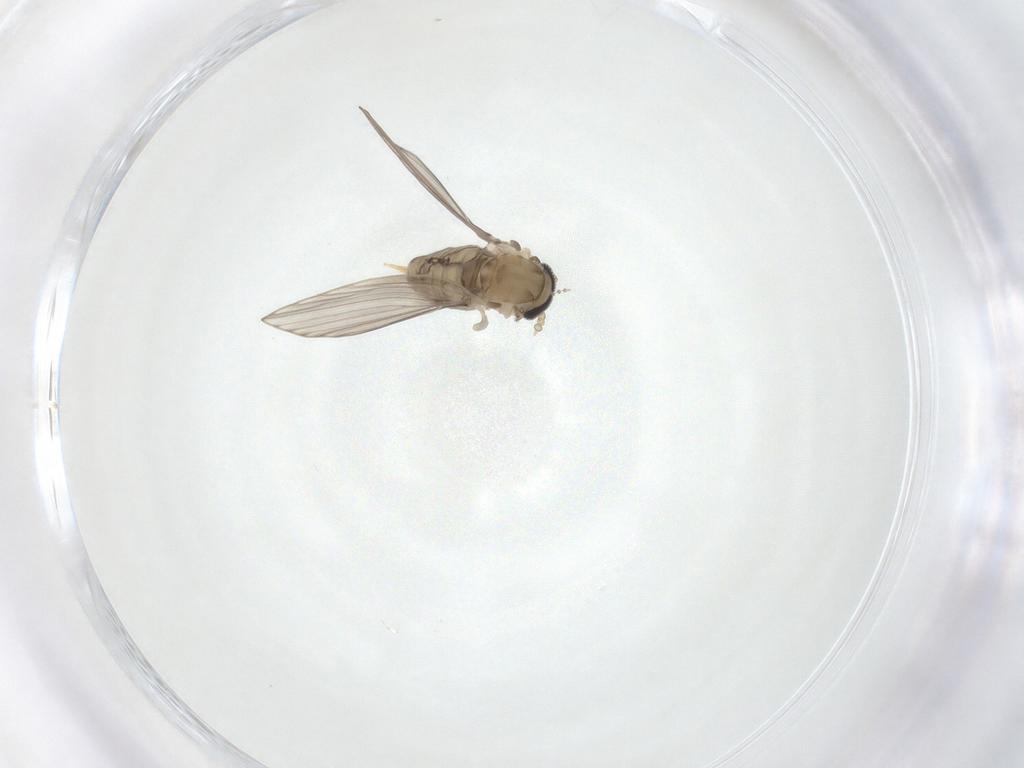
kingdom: Animalia
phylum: Arthropoda
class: Insecta
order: Diptera
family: Psychodidae
